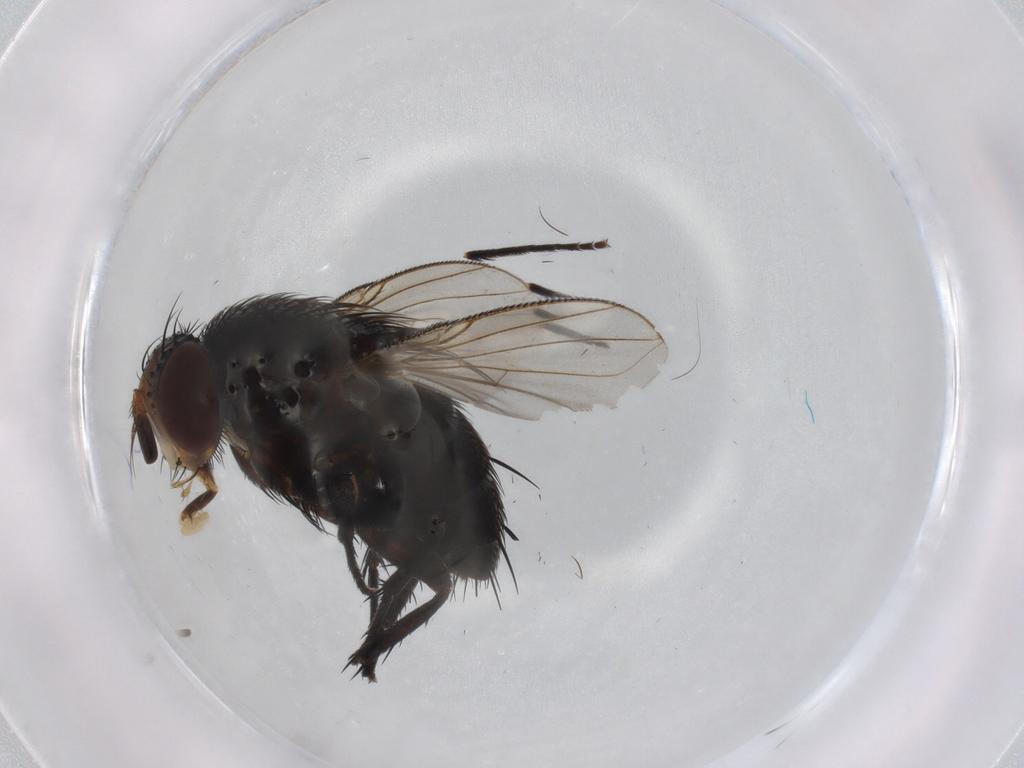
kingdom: Animalia
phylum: Arthropoda
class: Insecta
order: Diptera
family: Tachinidae
